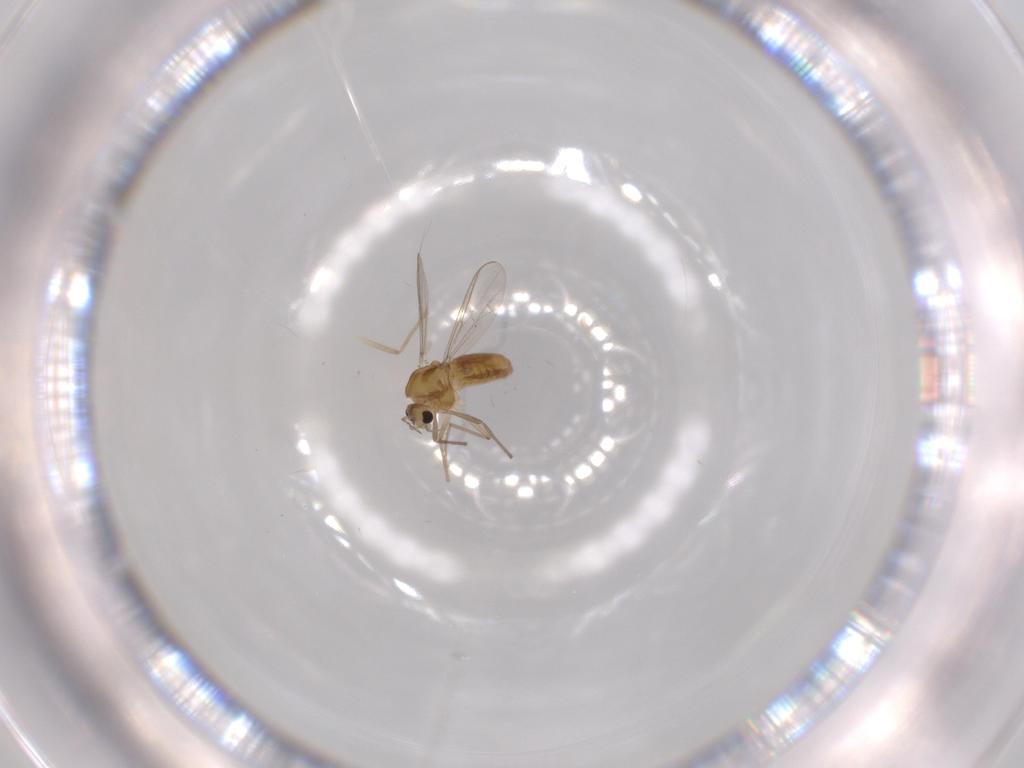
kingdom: Animalia
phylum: Arthropoda
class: Insecta
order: Diptera
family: Chironomidae
